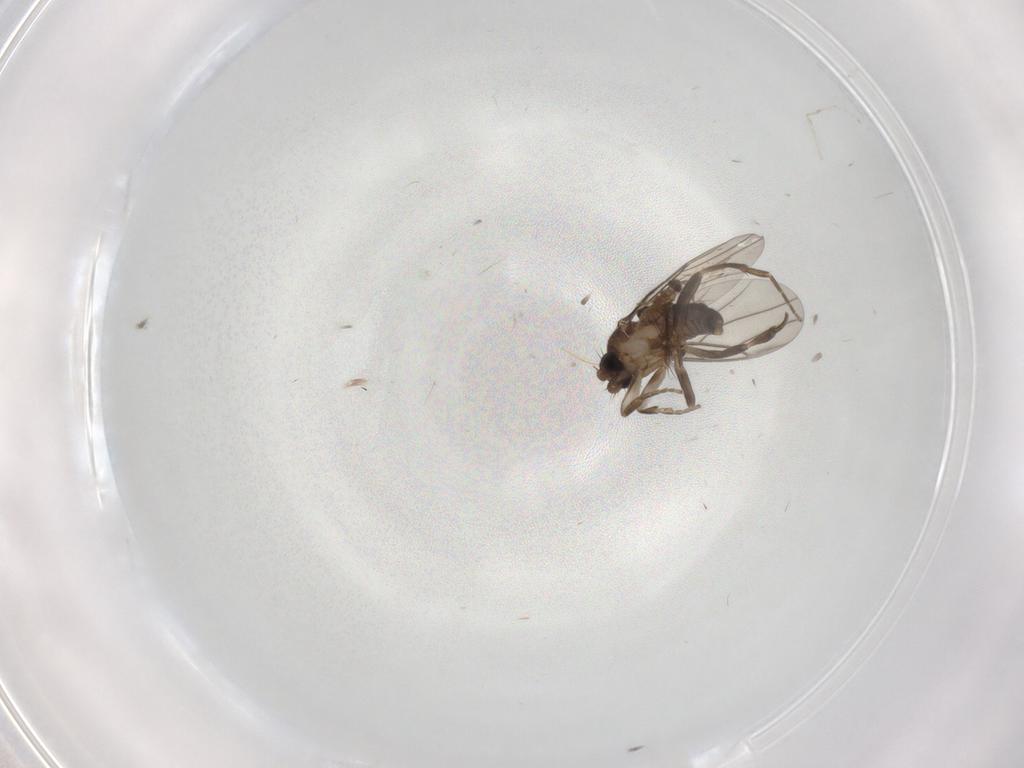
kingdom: Animalia
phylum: Arthropoda
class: Insecta
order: Diptera
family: Phoridae
